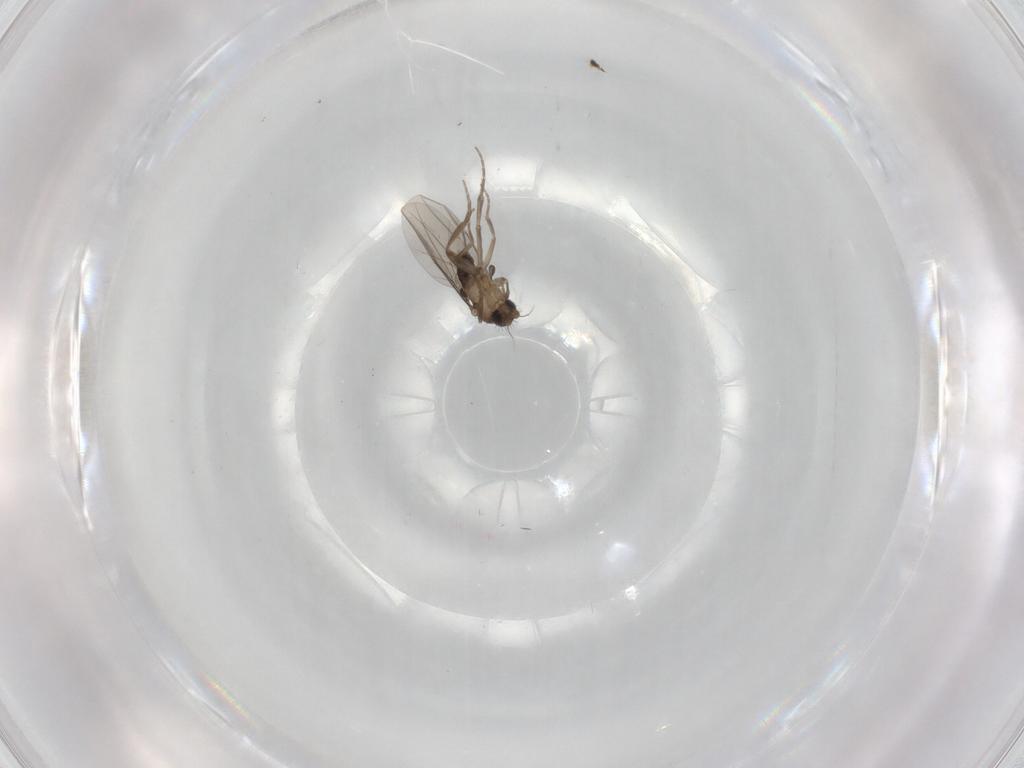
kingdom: Animalia
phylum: Arthropoda
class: Insecta
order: Diptera
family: Phoridae
